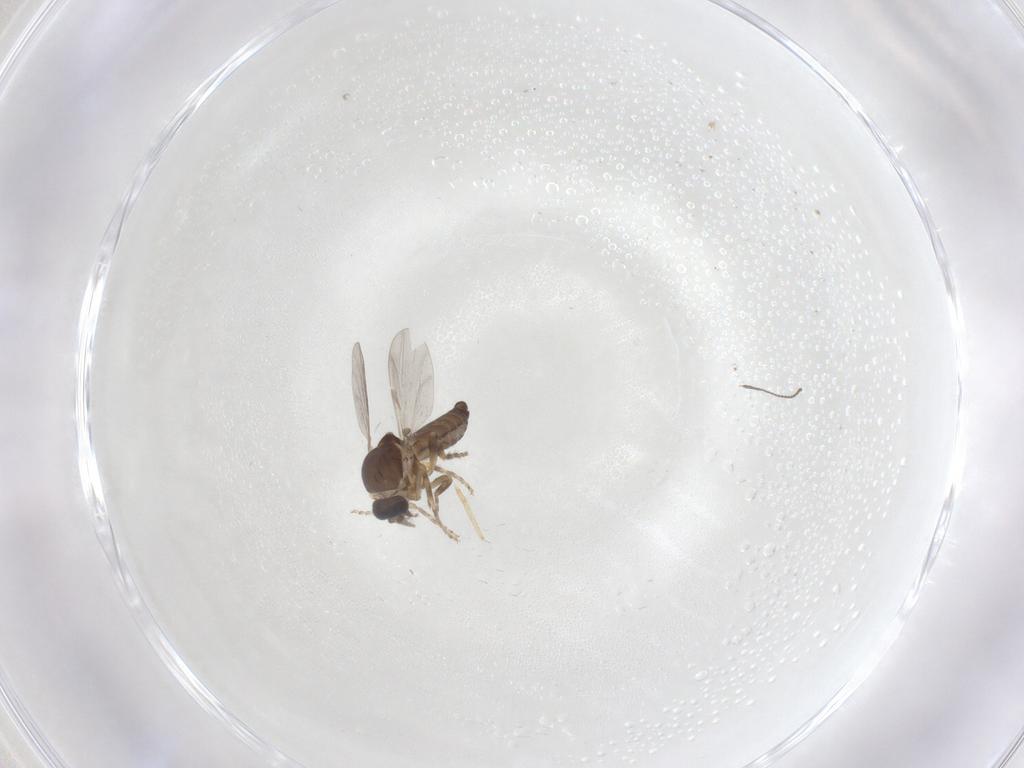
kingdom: Animalia
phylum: Arthropoda
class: Insecta
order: Diptera
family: Ceratopogonidae
